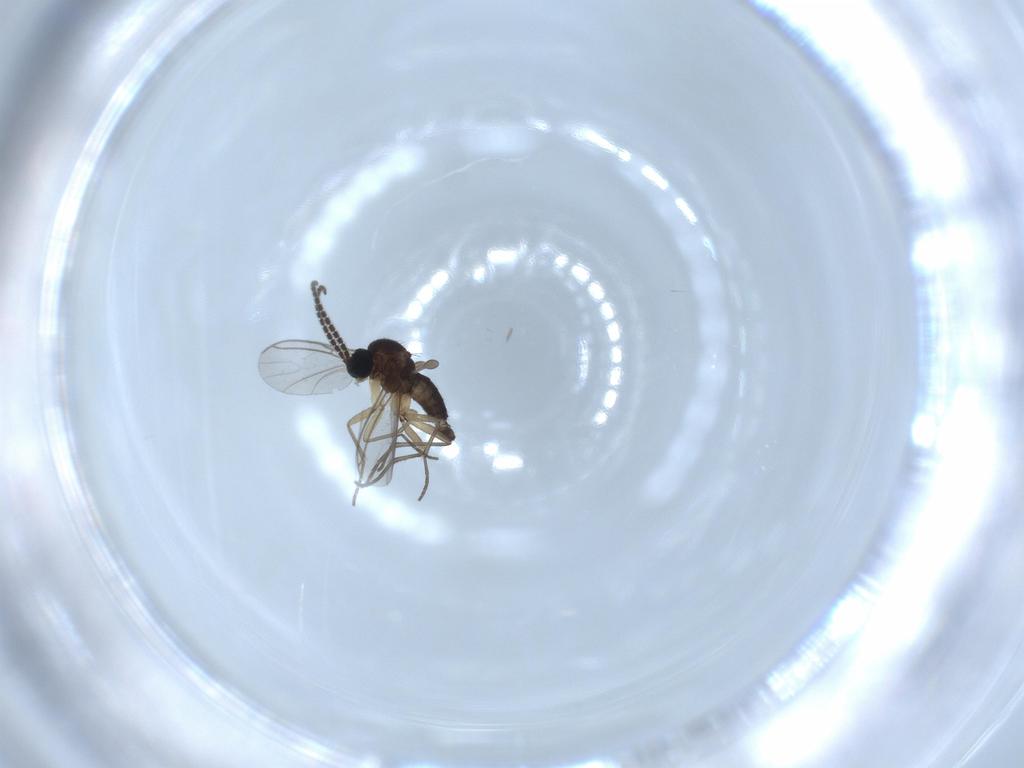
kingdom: Animalia
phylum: Arthropoda
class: Insecta
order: Diptera
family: Sciaridae
